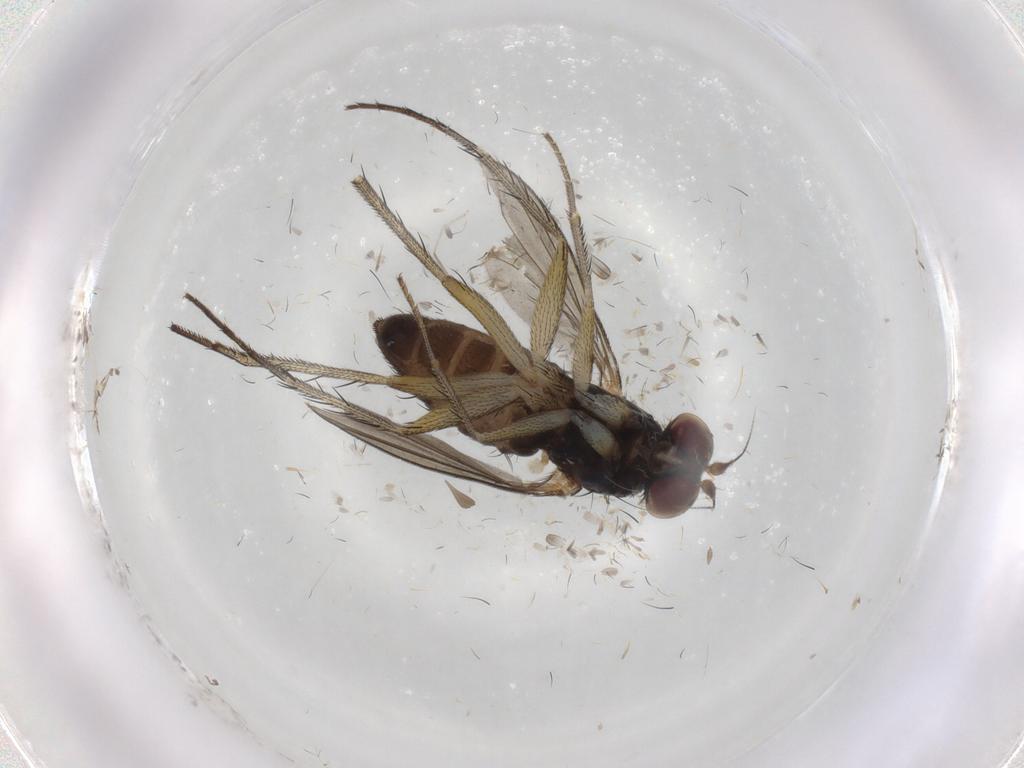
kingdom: Animalia
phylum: Arthropoda
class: Insecta
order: Diptera
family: Dolichopodidae
